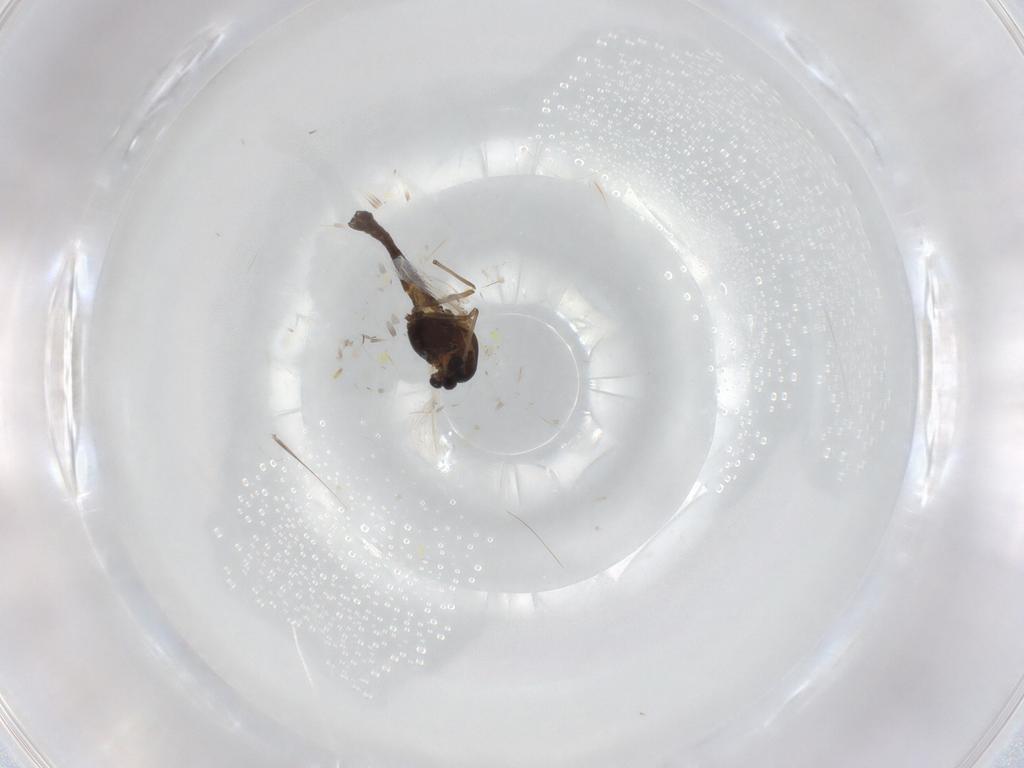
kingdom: Animalia
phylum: Arthropoda
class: Insecta
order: Diptera
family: Chironomidae
